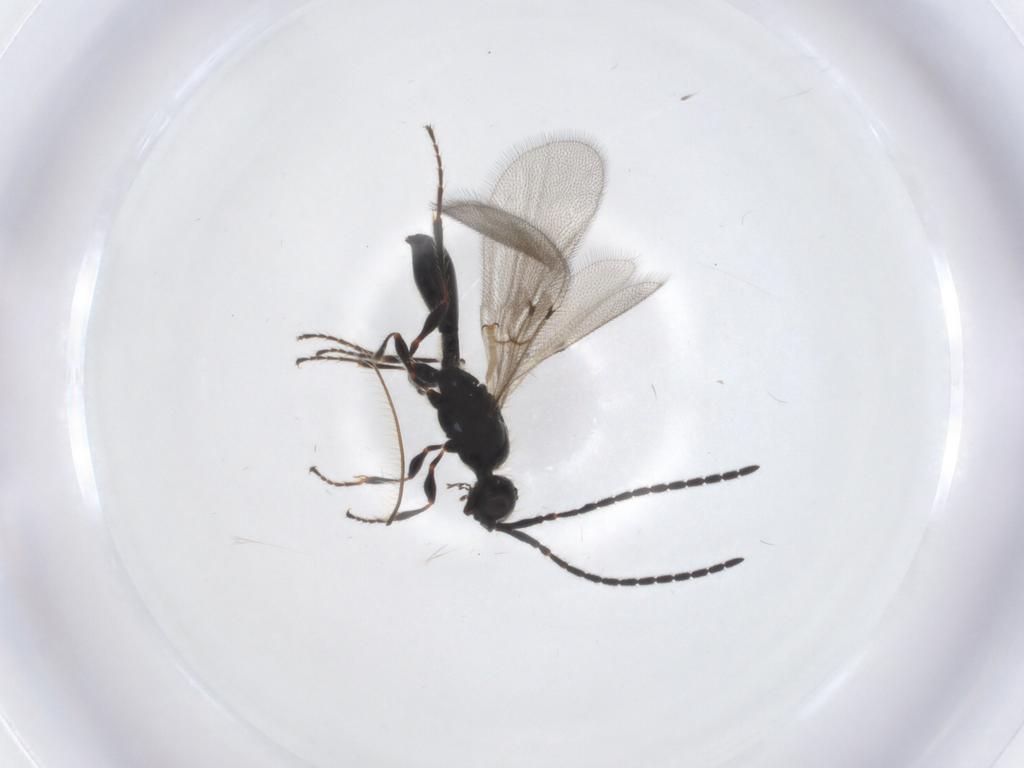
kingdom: Animalia
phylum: Arthropoda
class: Insecta
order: Hymenoptera
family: Diapriidae
